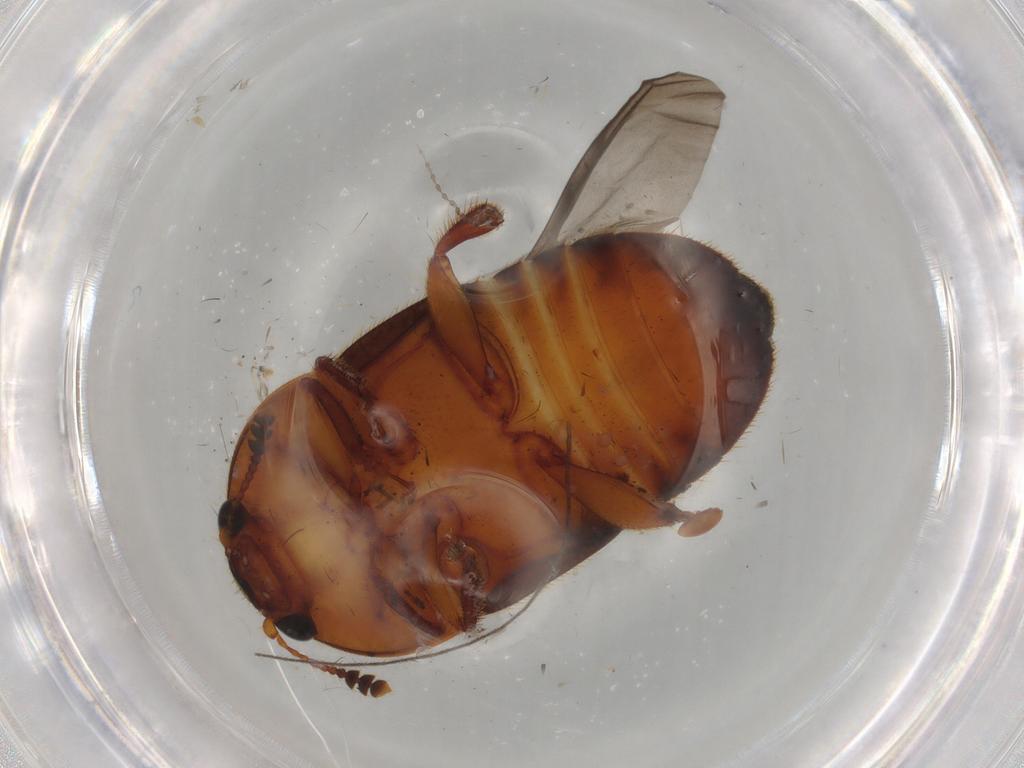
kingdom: Animalia
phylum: Arthropoda
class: Insecta
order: Coleoptera
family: Nitidulidae
